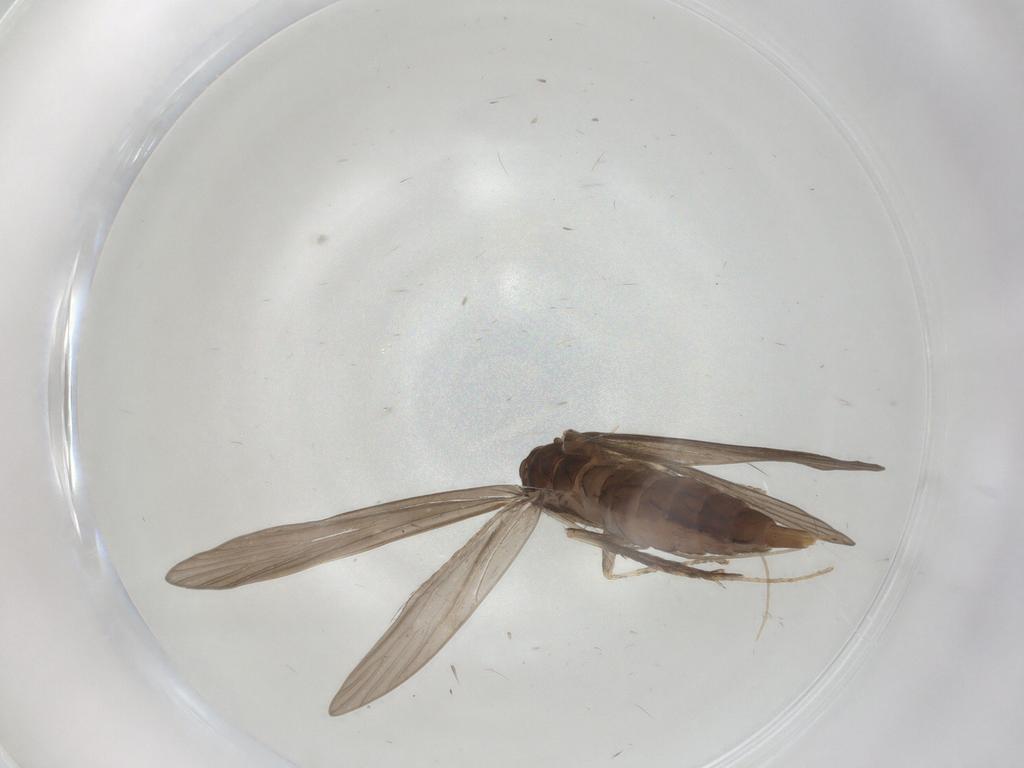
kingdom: Animalia
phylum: Arthropoda
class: Insecta
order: Trichoptera
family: Xiphocentronidae
